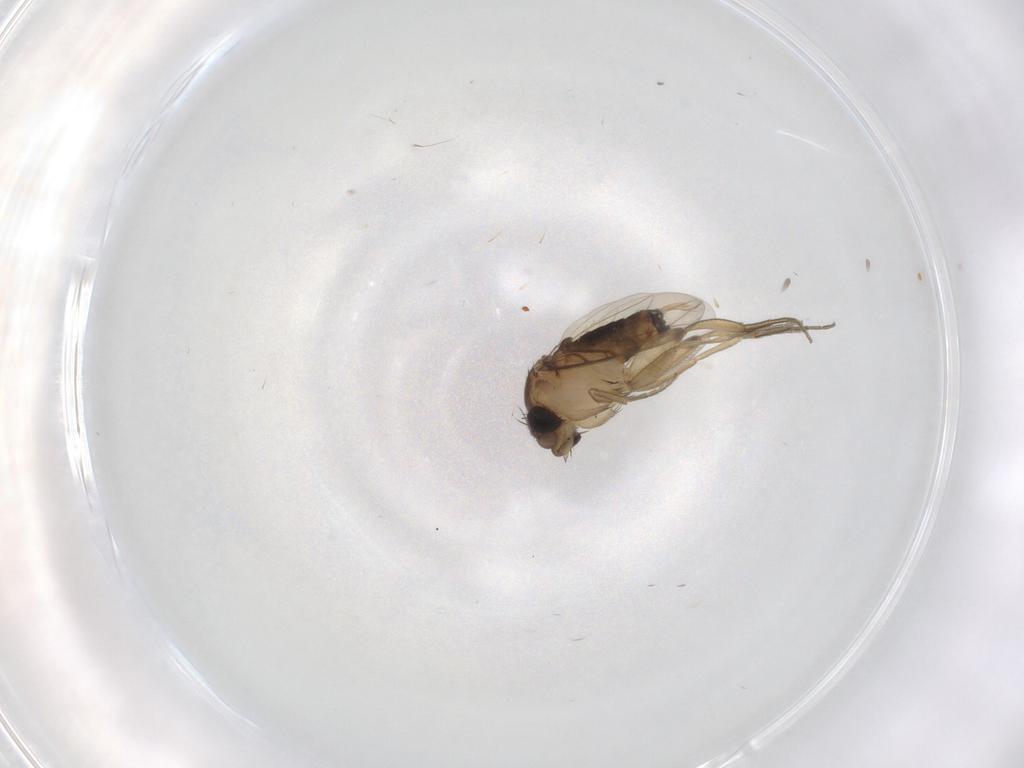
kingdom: Animalia
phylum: Arthropoda
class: Insecta
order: Diptera
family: Phoridae
